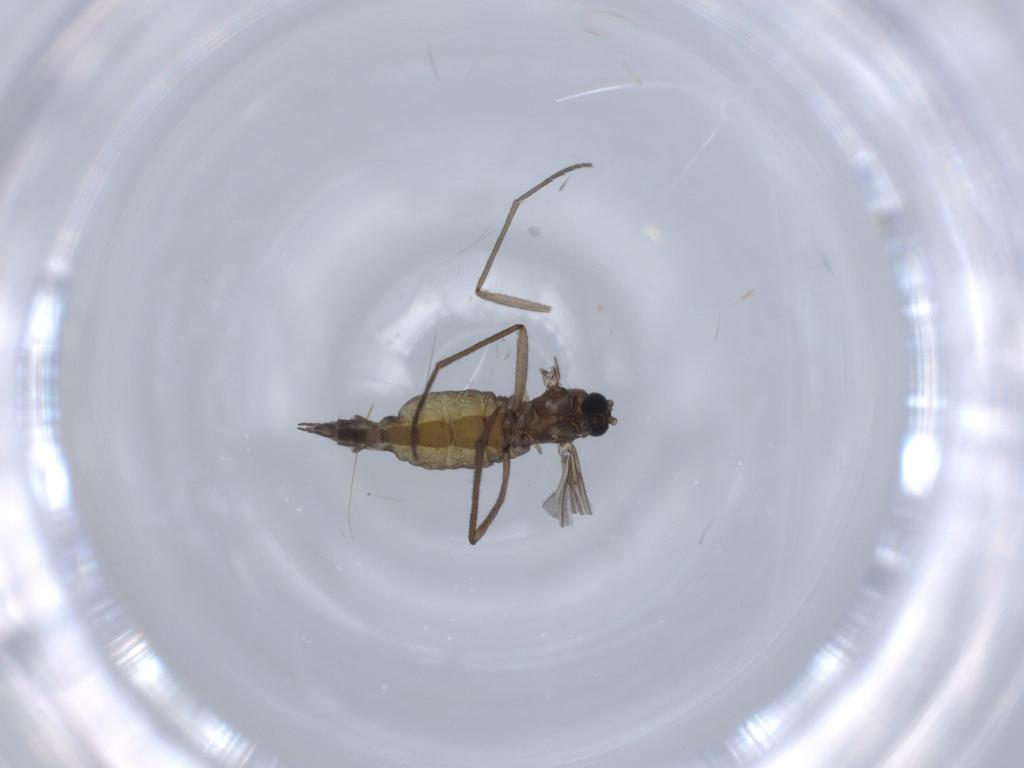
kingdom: Animalia
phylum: Arthropoda
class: Insecta
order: Diptera
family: Sciaridae
